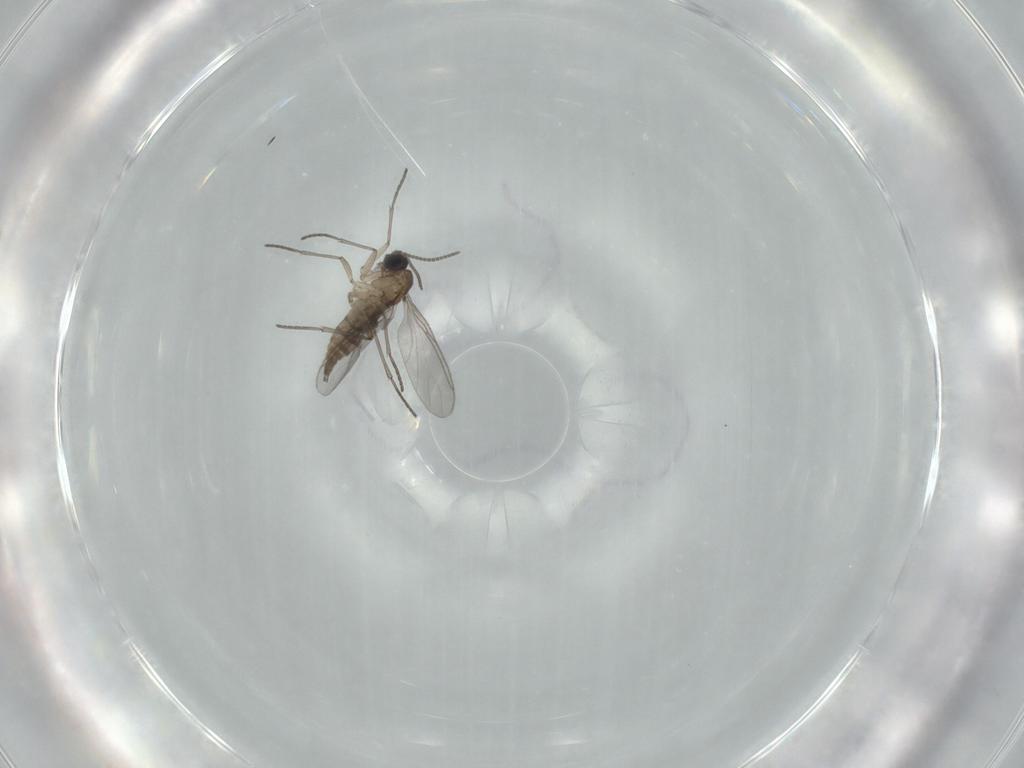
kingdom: Animalia
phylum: Arthropoda
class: Insecta
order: Diptera
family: Sciaridae
